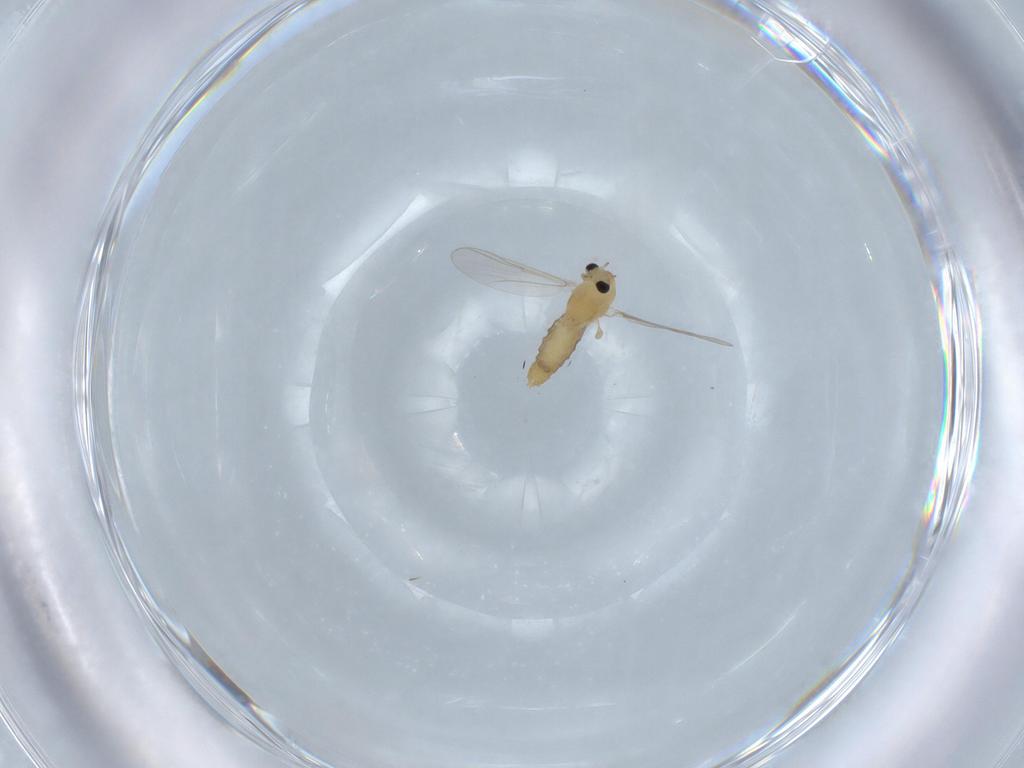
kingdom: Animalia
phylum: Arthropoda
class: Insecta
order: Diptera
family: Chironomidae
